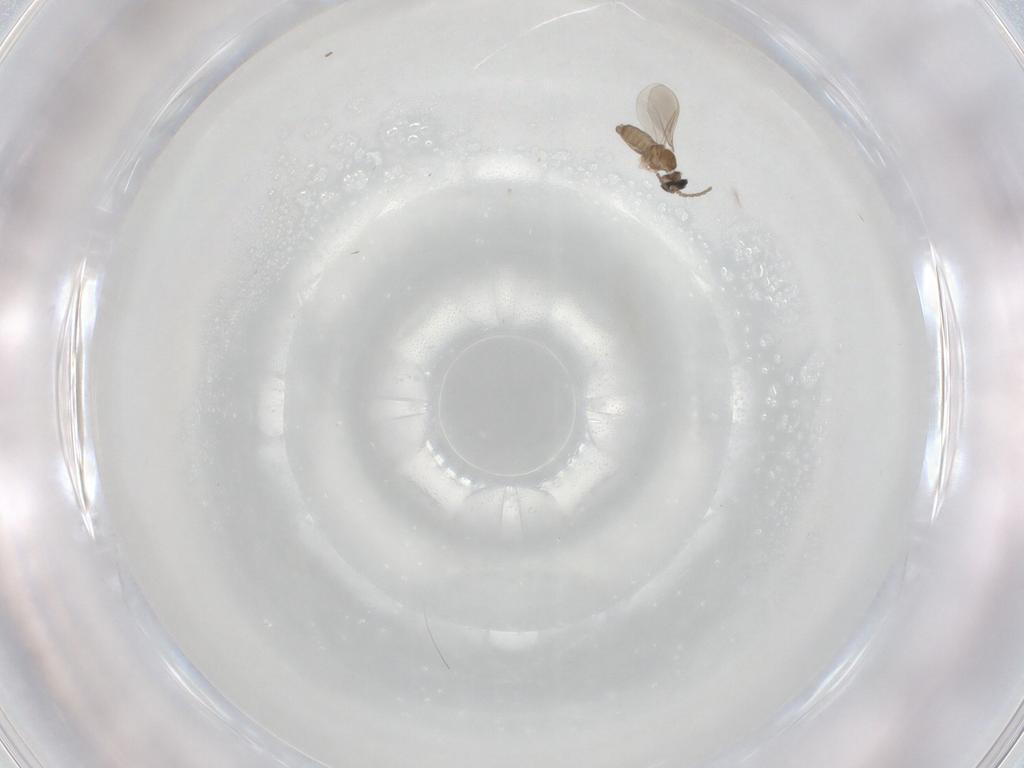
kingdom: Animalia
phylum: Arthropoda
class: Insecta
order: Diptera
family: Cecidomyiidae
